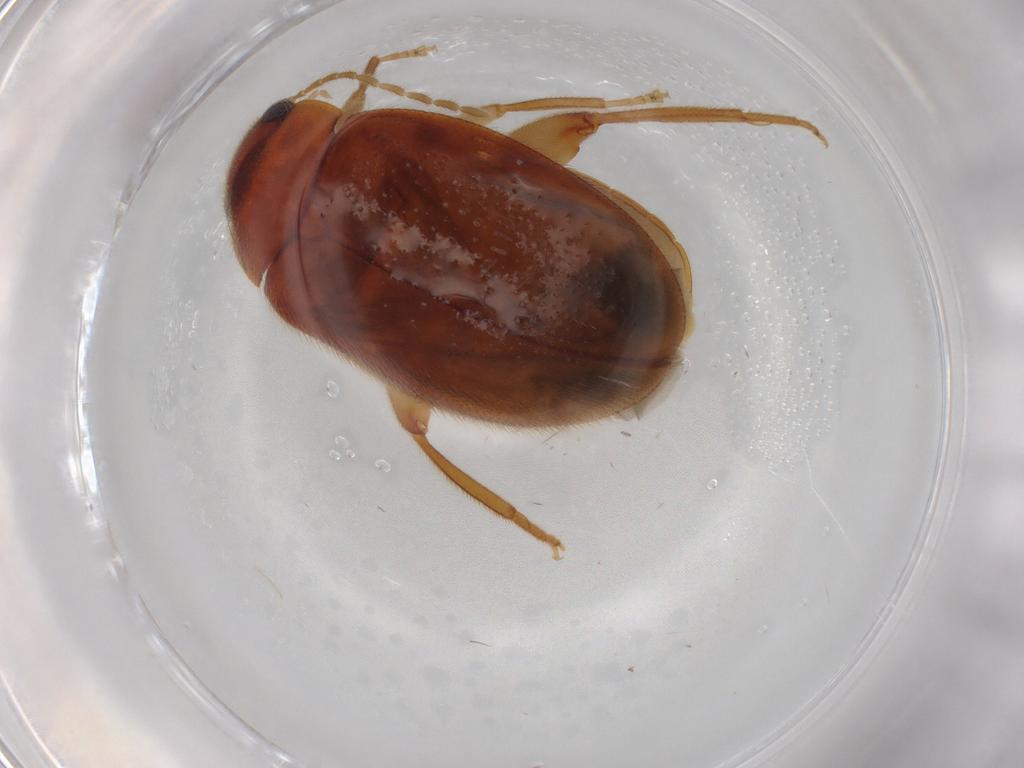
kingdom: Animalia
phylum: Arthropoda
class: Insecta
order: Coleoptera
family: Scirtidae
